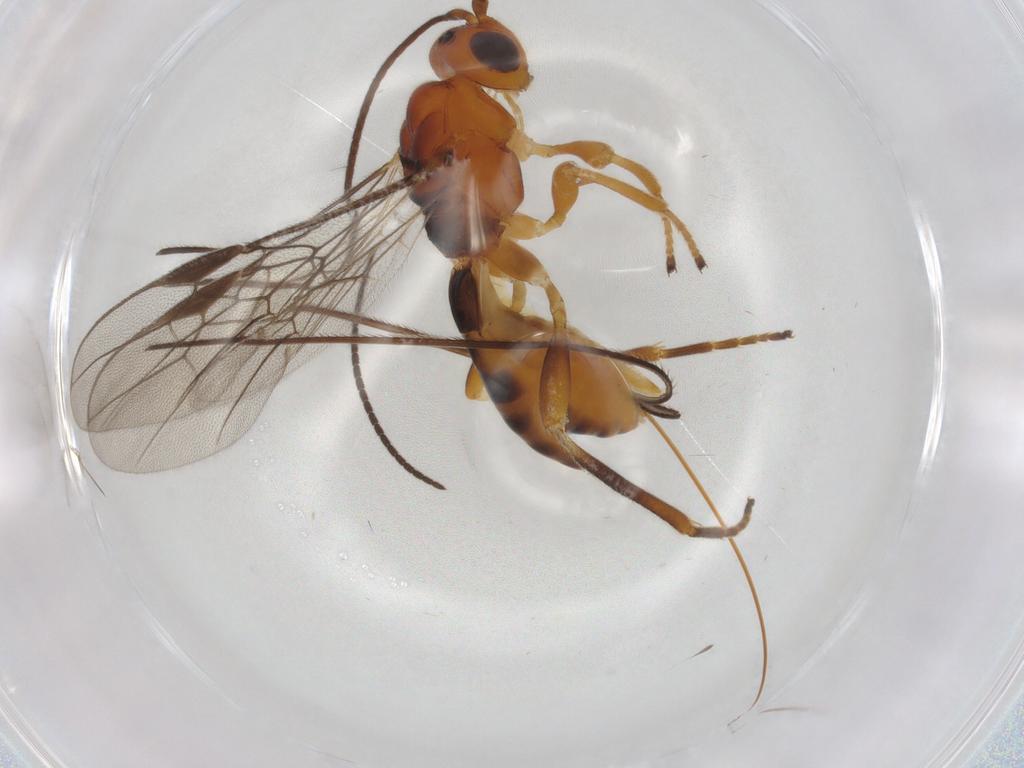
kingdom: Animalia
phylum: Arthropoda
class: Insecta
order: Hymenoptera
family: Braconidae
